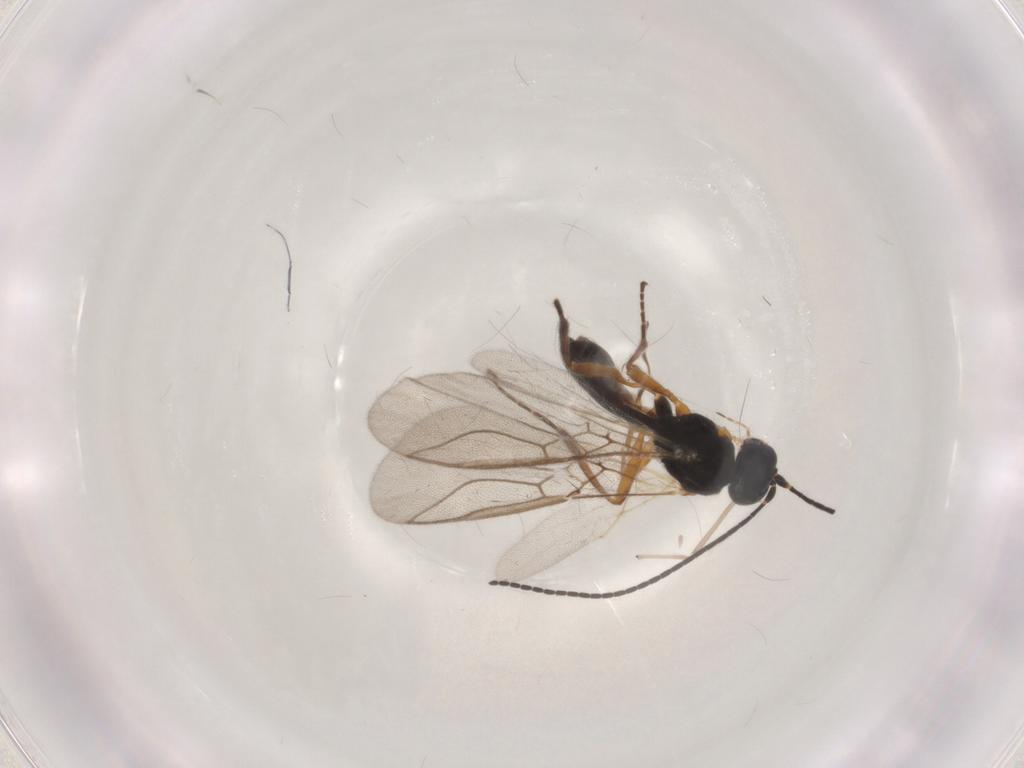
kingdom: Animalia
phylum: Arthropoda
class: Insecta
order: Hymenoptera
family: Braconidae
